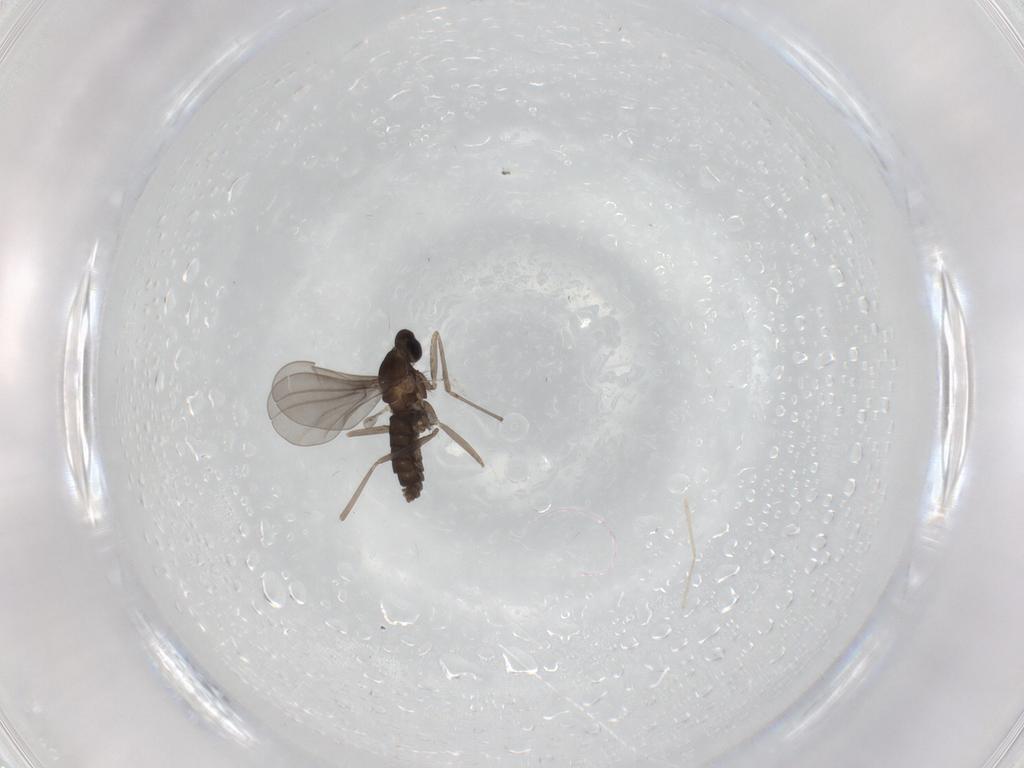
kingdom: Animalia
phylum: Arthropoda
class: Insecta
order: Diptera
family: Cecidomyiidae
